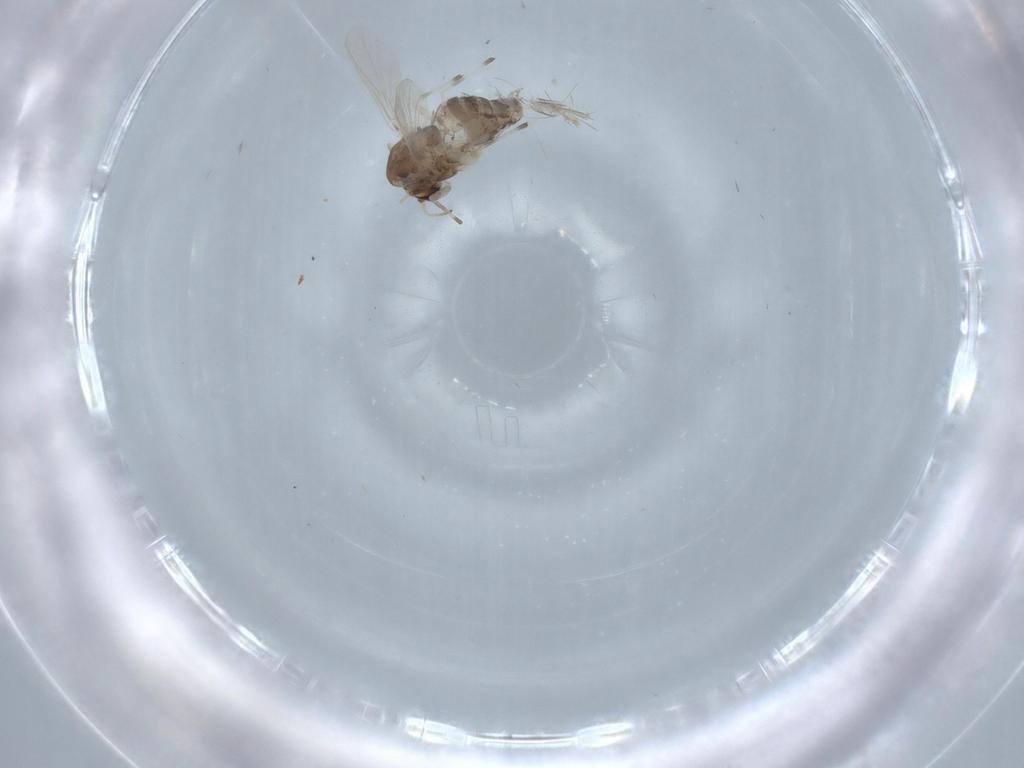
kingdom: Animalia
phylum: Arthropoda
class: Insecta
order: Diptera
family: Chironomidae
